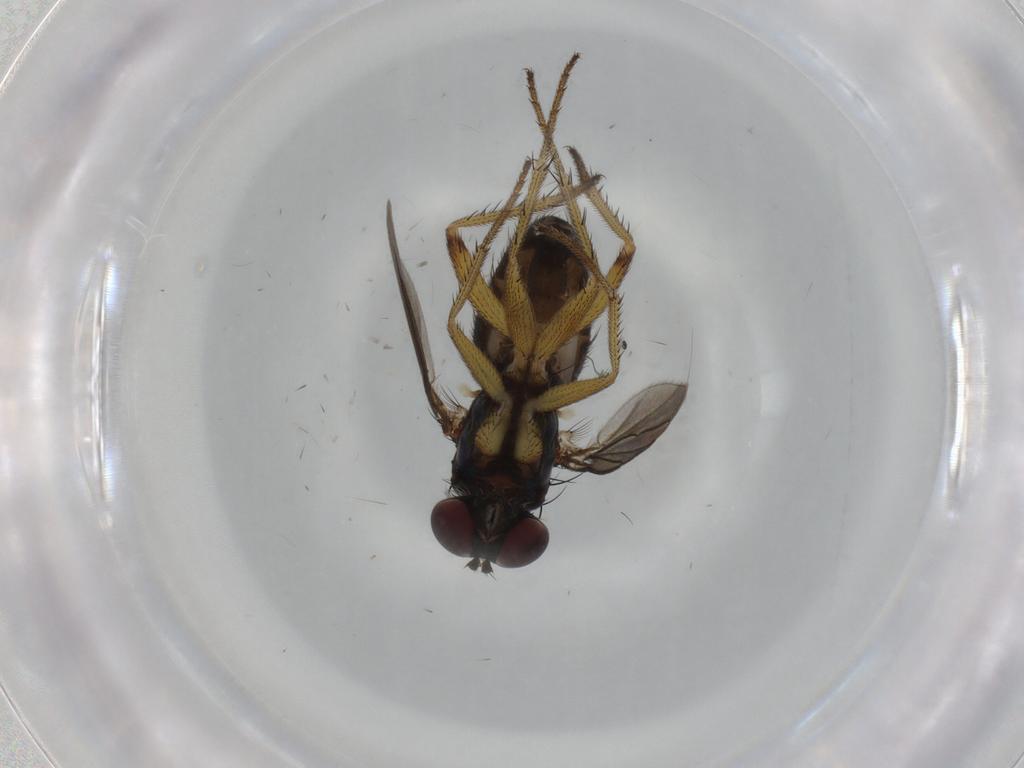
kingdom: Animalia
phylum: Arthropoda
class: Insecta
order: Diptera
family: Dolichopodidae
